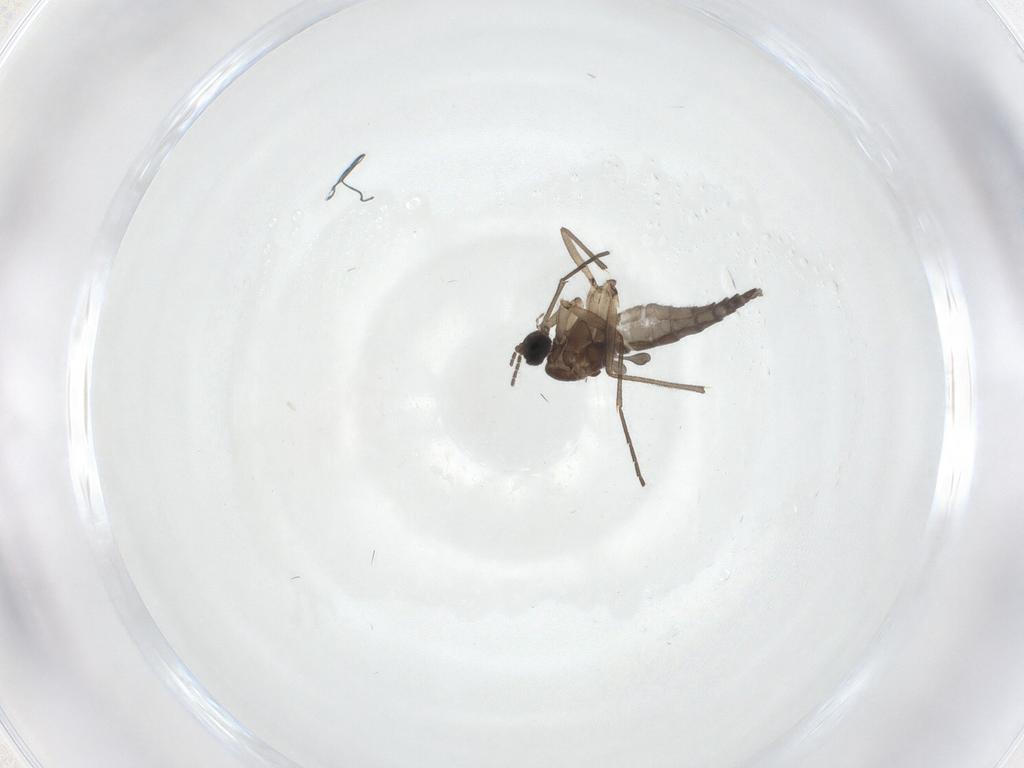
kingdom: Animalia
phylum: Arthropoda
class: Insecta
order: Diptera
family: Sciaridae
